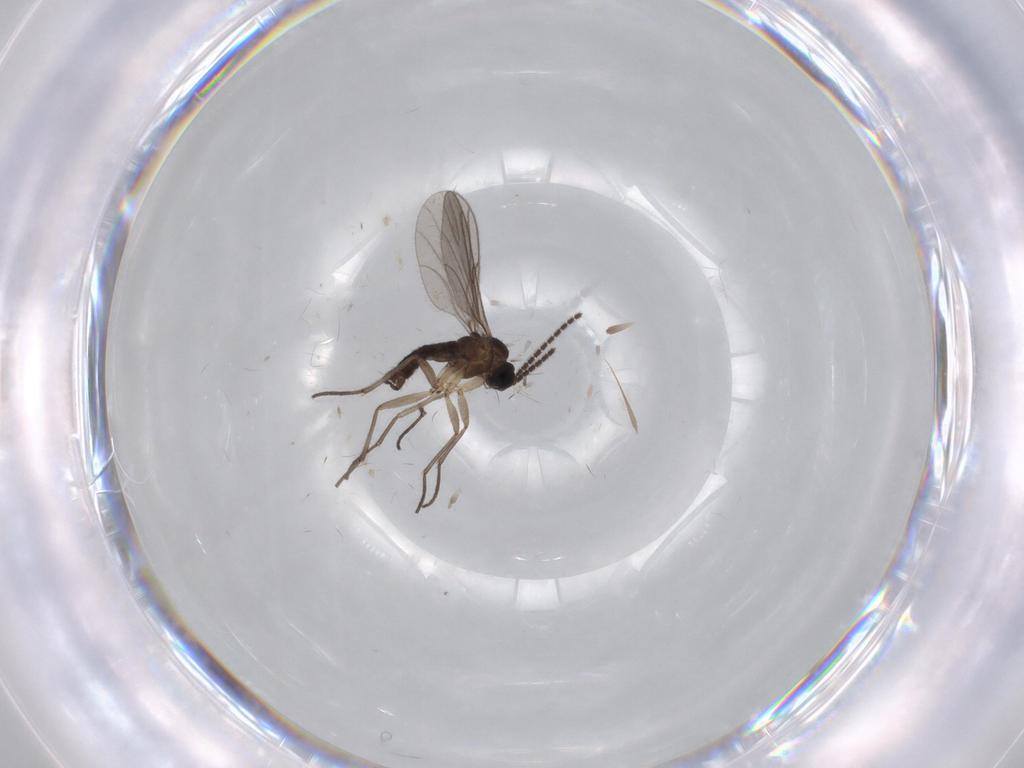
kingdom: Animalia
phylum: Arthropoda
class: Insecta
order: Diptera
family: Sciaridae
